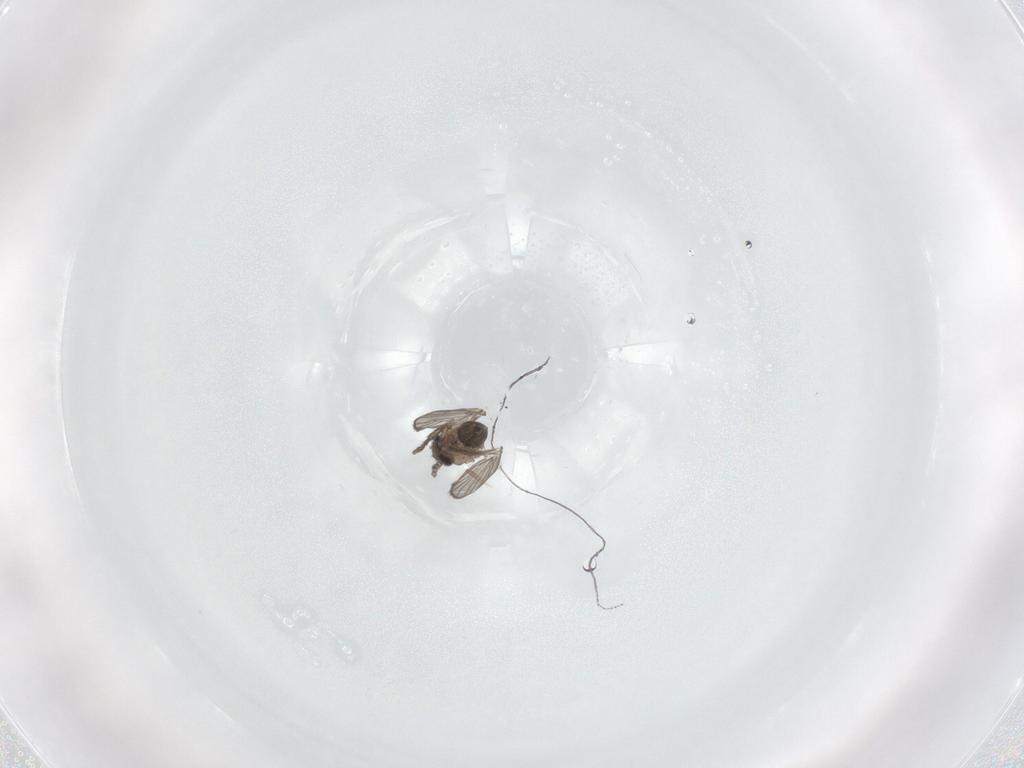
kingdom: Animalia
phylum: Arthropoda
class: Insecta
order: Diptera
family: Psychodidae
